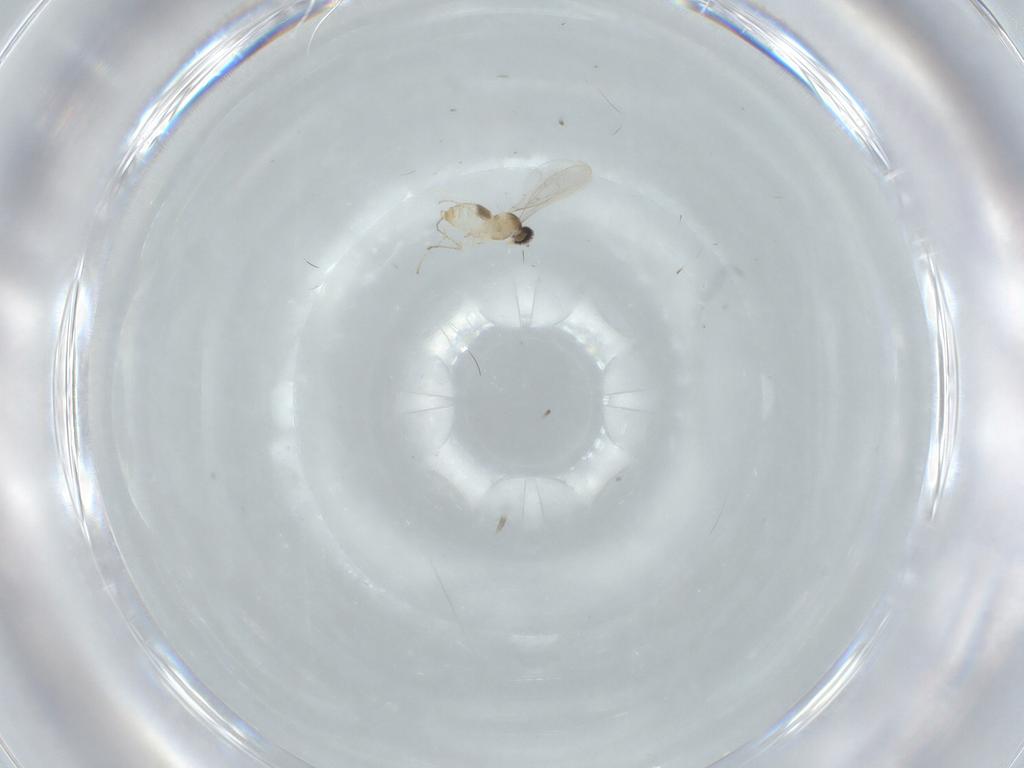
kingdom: Animalia
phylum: Arthropoda
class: Insecta
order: Diptera
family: Cecidomyiidae
